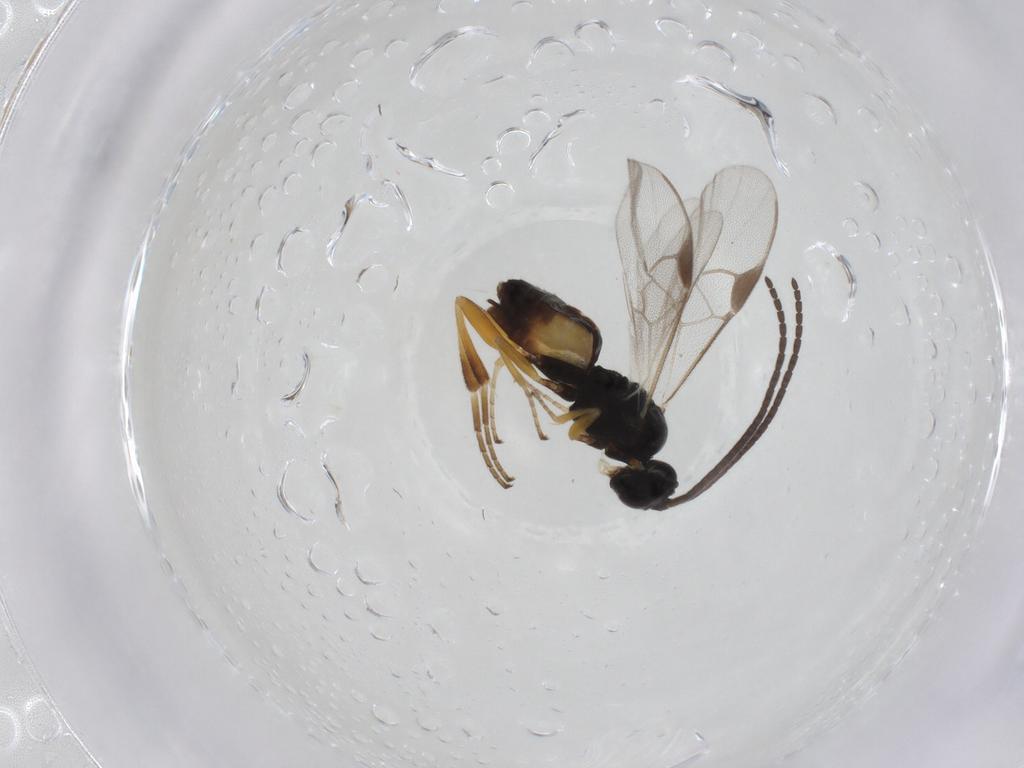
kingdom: Animalia
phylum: Arthropoda
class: Insecta
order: Hymenoptera
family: Braconidae
